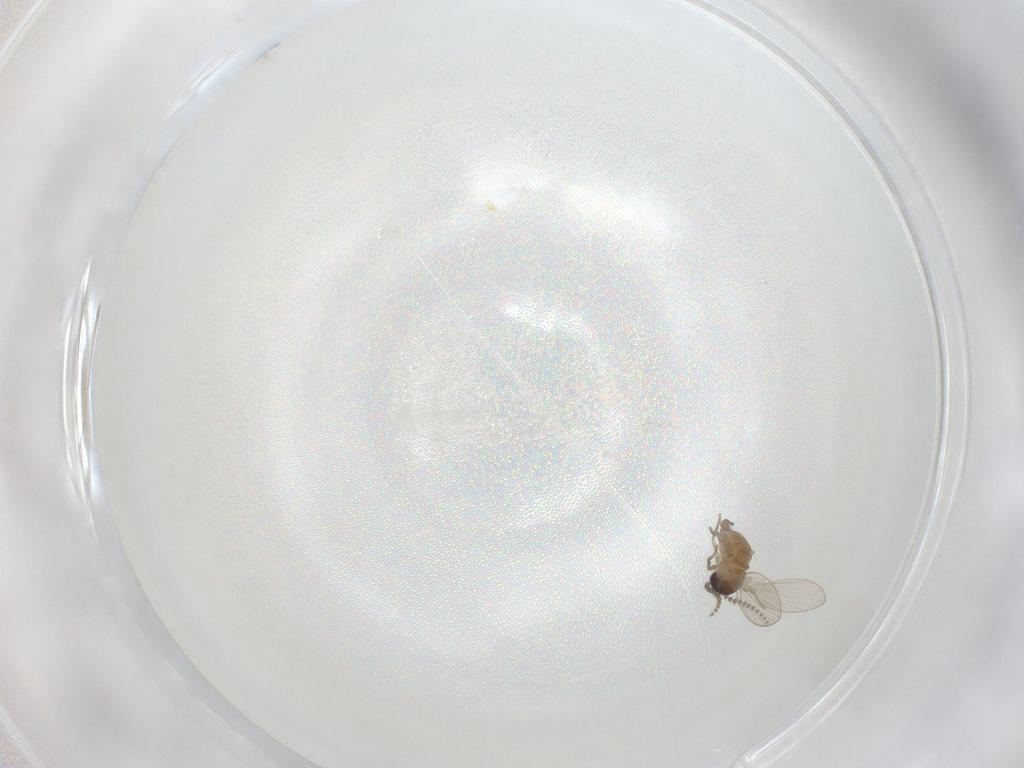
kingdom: Animalia
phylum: Arthropoda
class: Insecta
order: Diptera
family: Psychodidae
